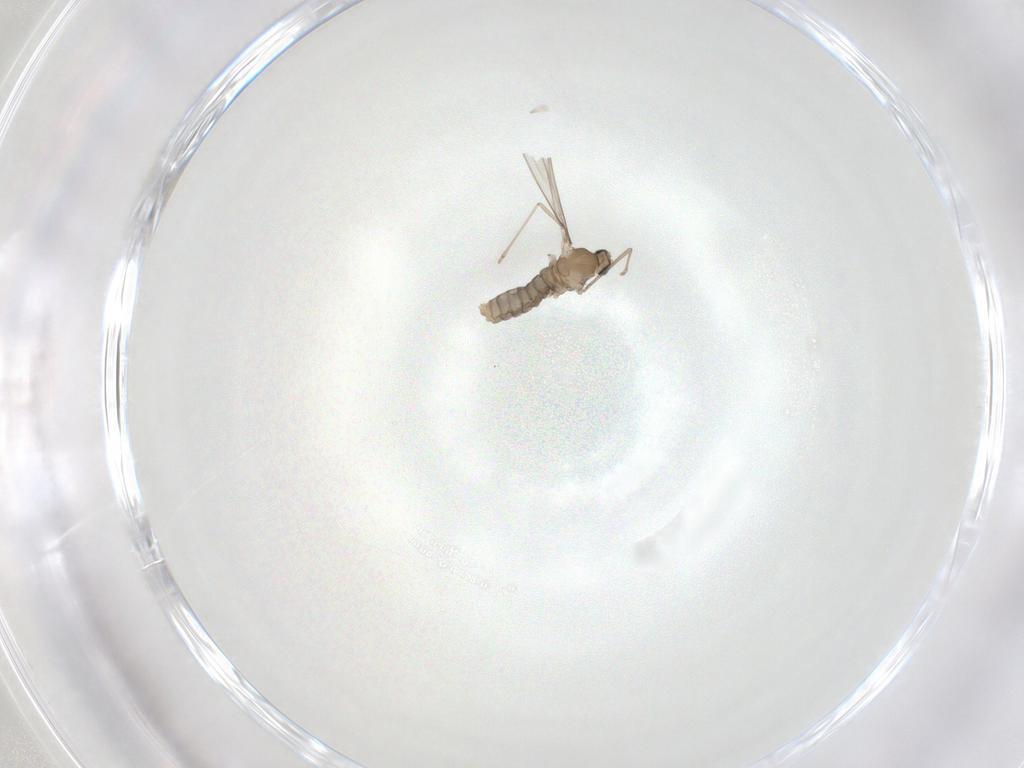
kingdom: Animalia
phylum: Arthropoda
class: Insecta
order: Diptera
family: Cecidomyiidae
